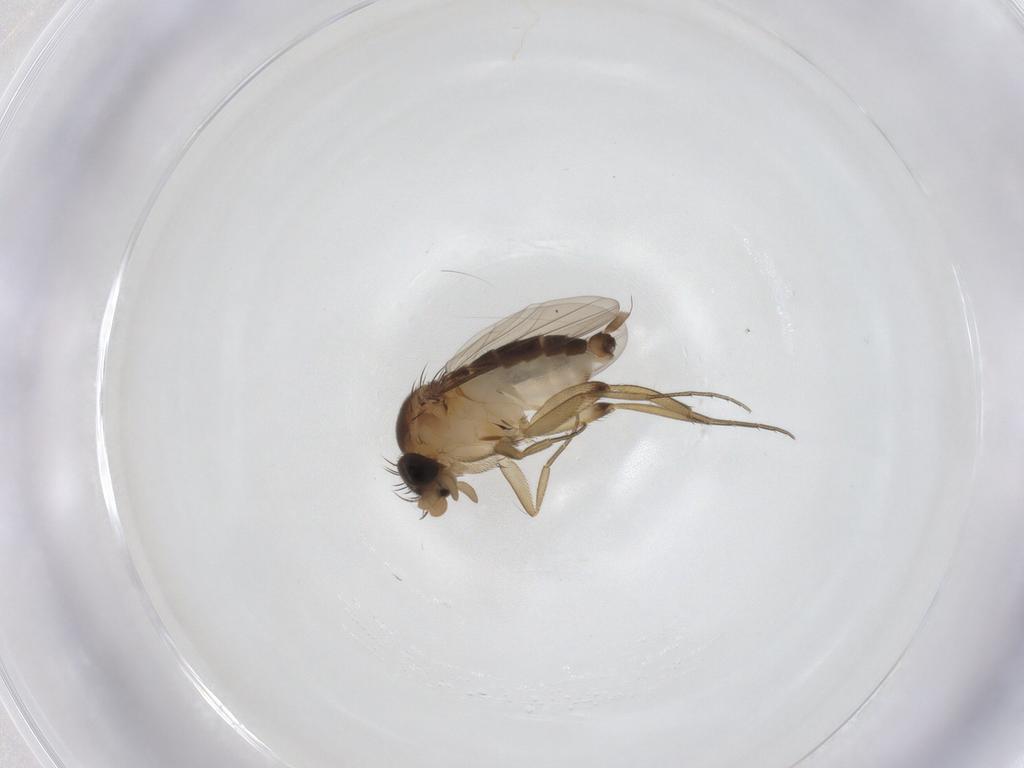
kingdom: Animalia
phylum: Arthropoda
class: Insecta
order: Diptera
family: Phoridae
